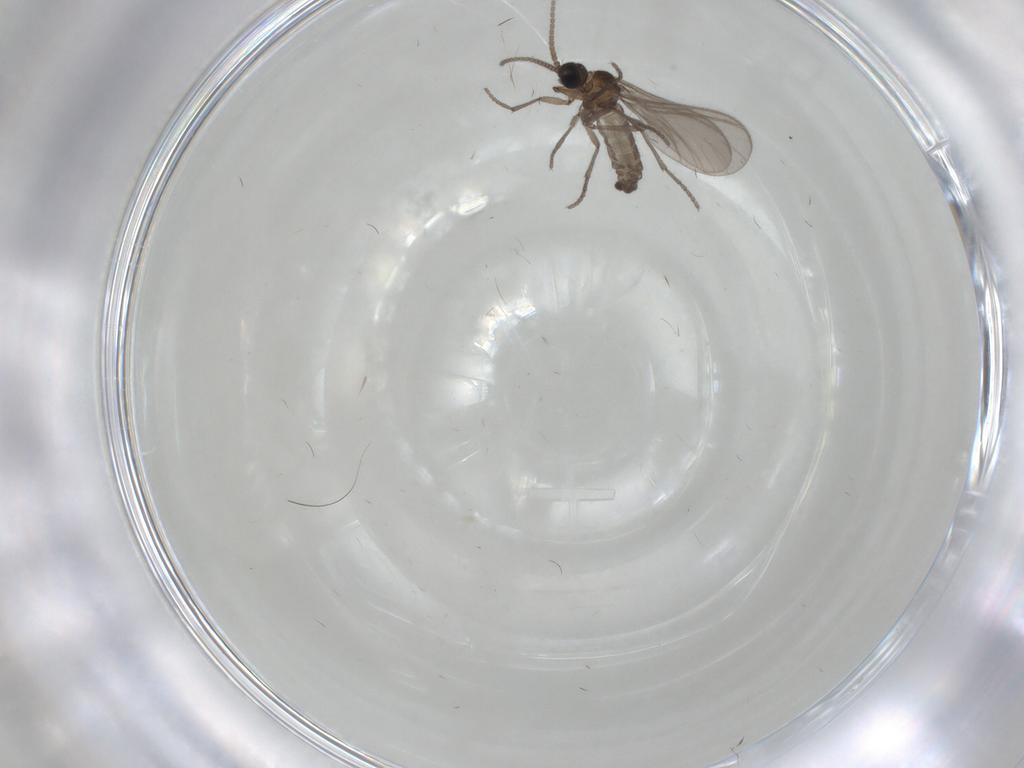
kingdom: Animalia
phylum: Arthropoda
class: Insecta
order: Diptera
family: Sciaridae
